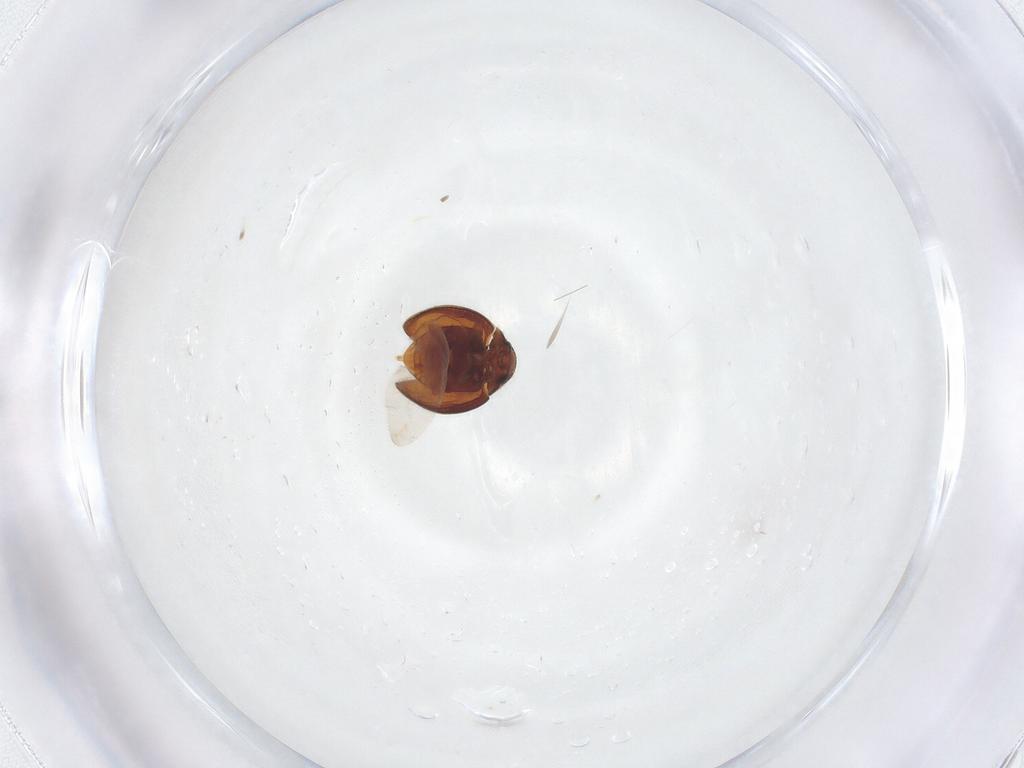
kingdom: Animalia
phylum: Arthropoda
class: Insecta
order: Coleoptera
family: Coccinellidae
